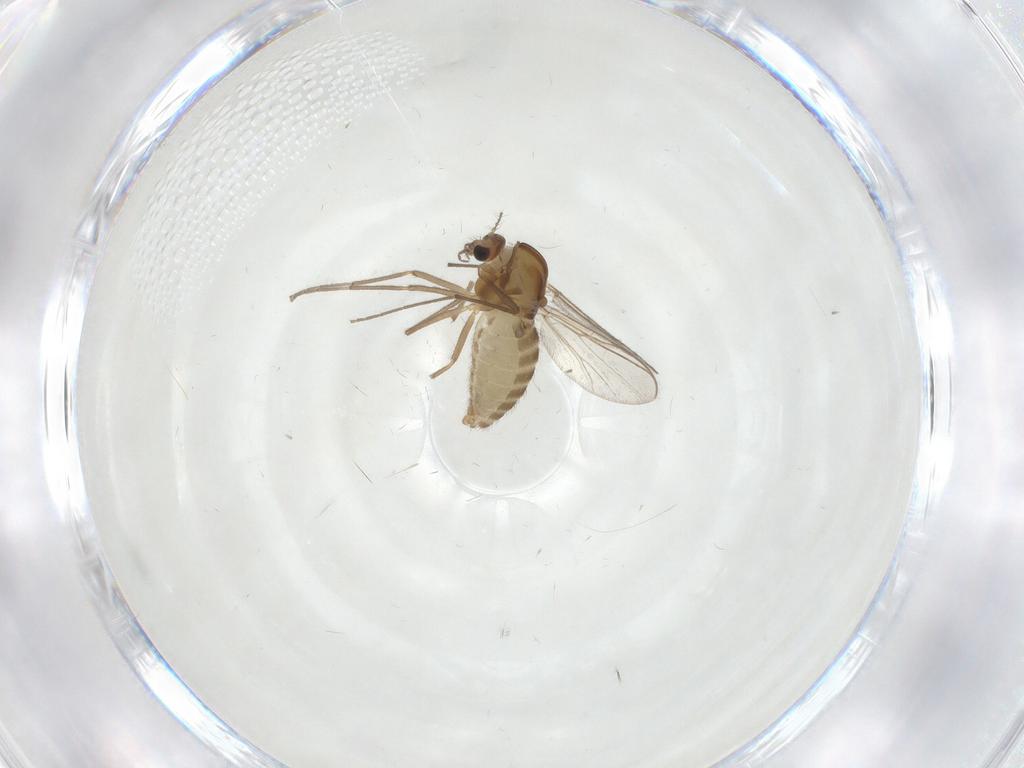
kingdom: Animalia
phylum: Arthropoda
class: Insecta
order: Diptera
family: Chironomidae
